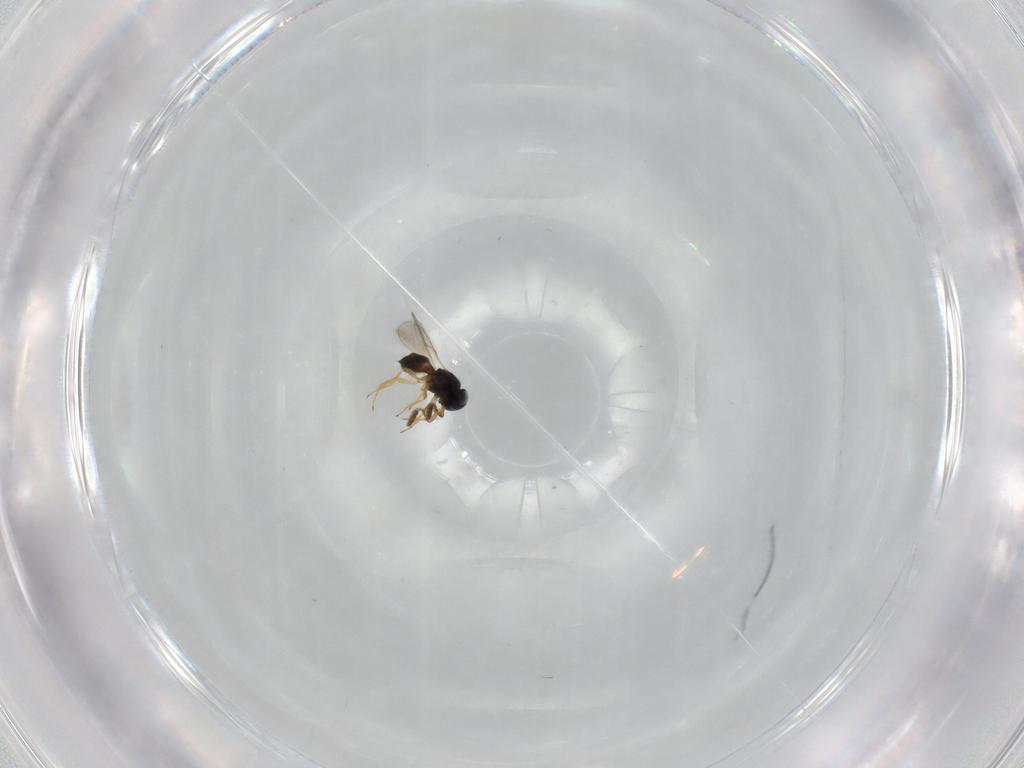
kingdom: Animalia
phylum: Arthropoda
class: Insecta
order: Hymenoptera
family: Scelionidae
